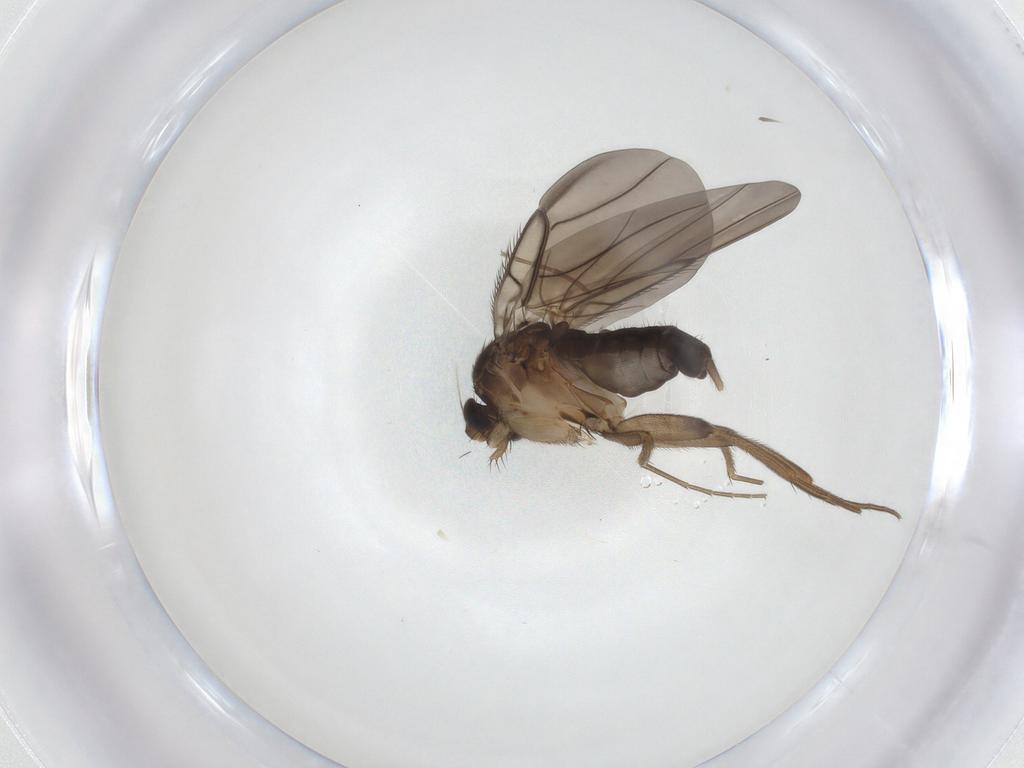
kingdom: Animalia
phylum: Arthropoda
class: Insecta
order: Diptera
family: Phoridae
